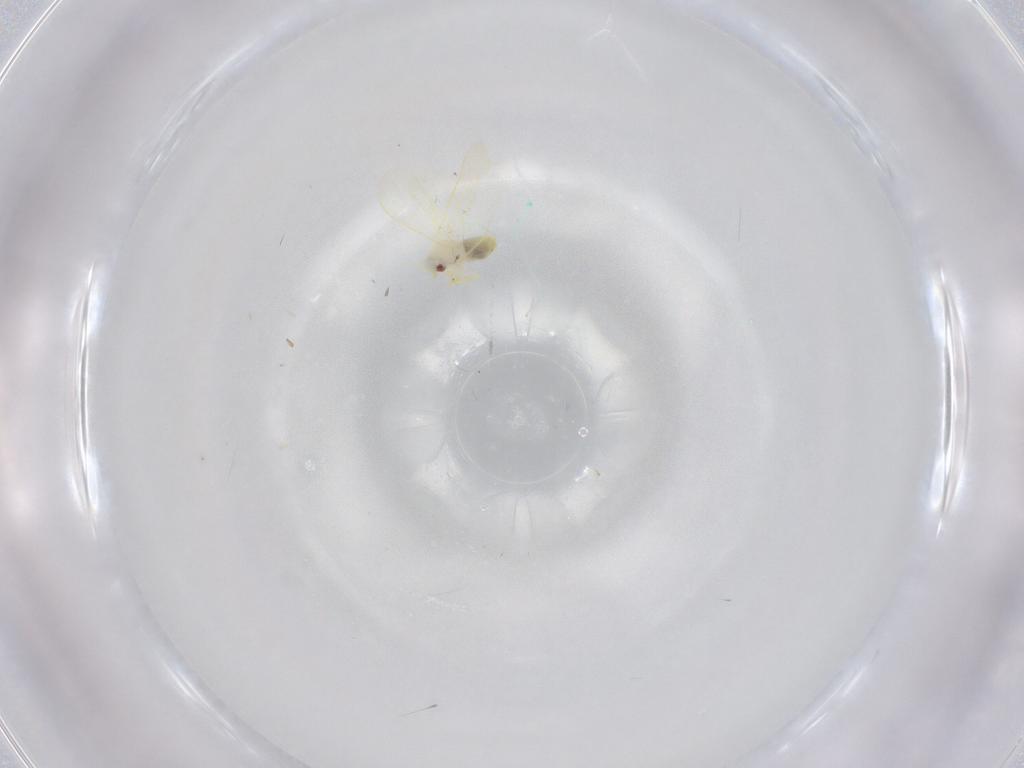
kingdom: Animalia
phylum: Arthropoda
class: Insecta
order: Hemiptera
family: Aleyrodidae
